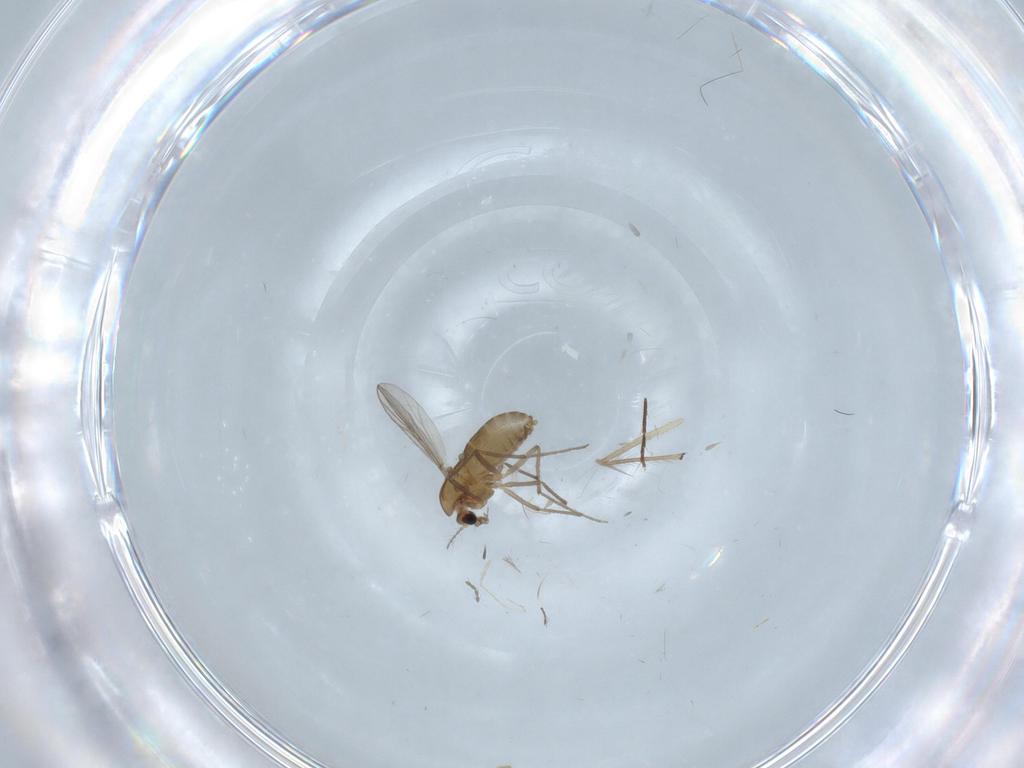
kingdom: Animalia
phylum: Arthropoda
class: Insecta
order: Diptera
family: Chironomidae
